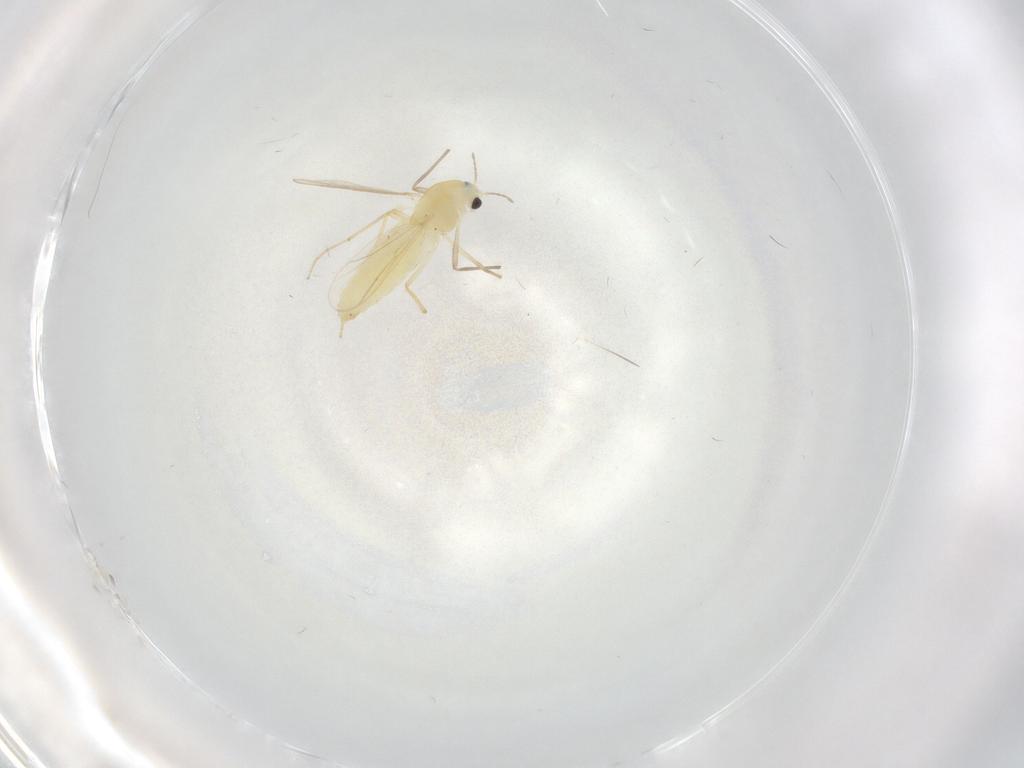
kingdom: Animalia
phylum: Arthropoda
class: Insecta
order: Diptera
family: Chironomidae
